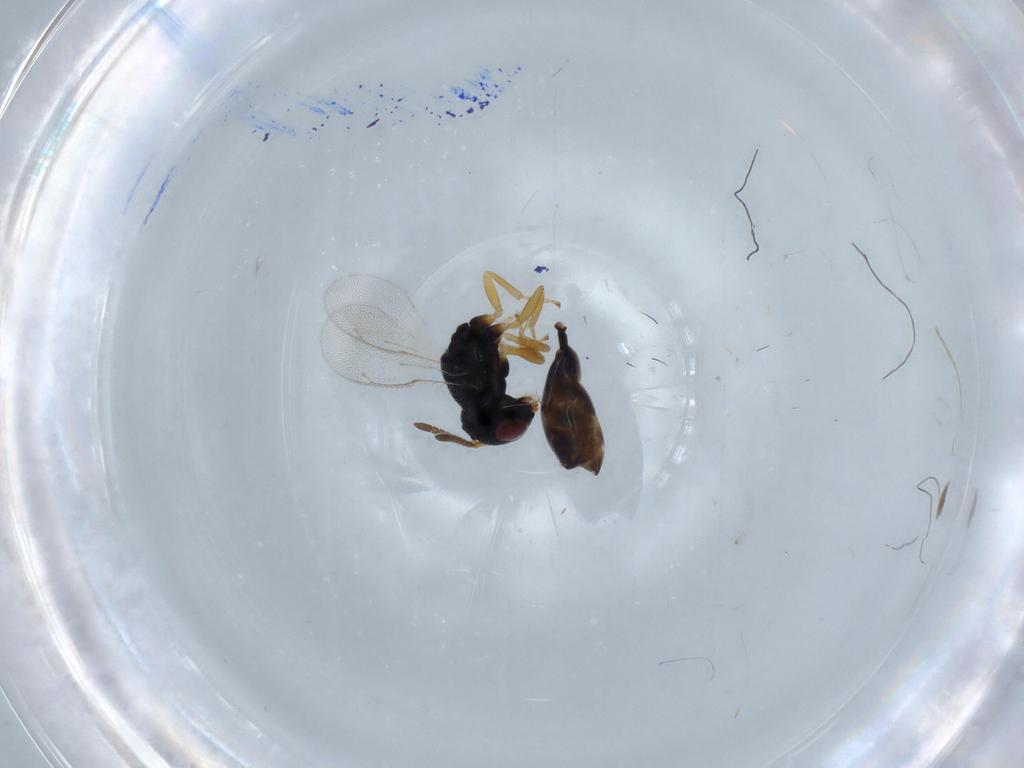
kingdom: Animalia
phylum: Arthropoda
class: Insecta
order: Hymenoptera
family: Pteromalidae
